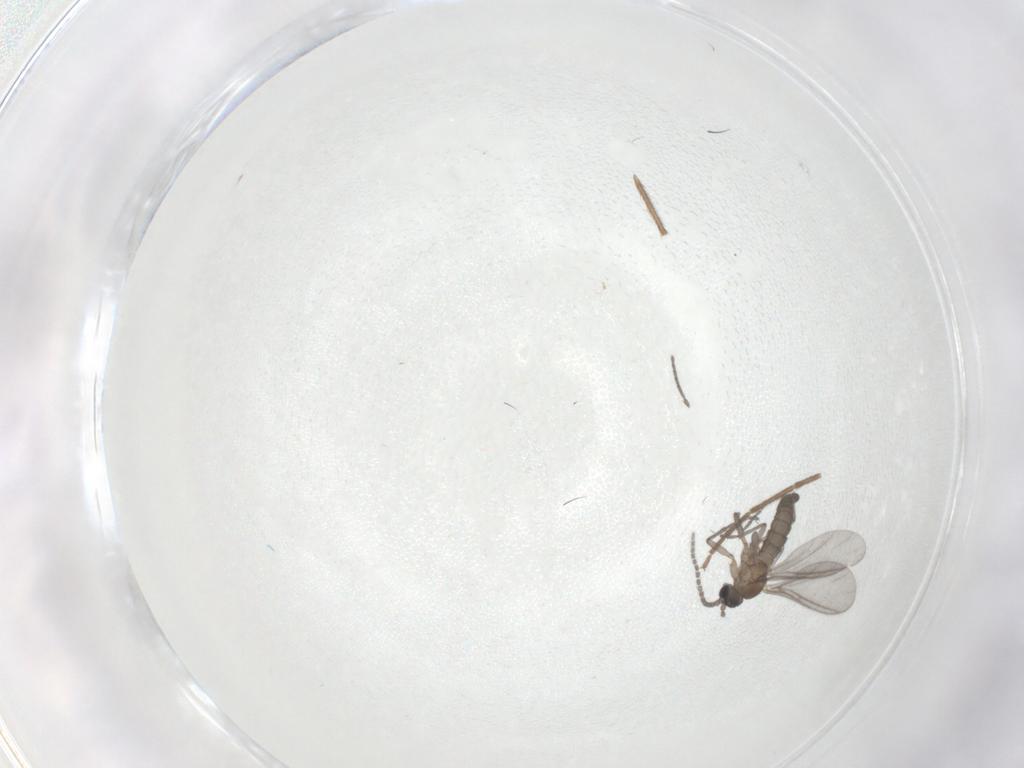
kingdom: Animalia
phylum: Arthropoda
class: Insecta
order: Diptera
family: Sciaridae
